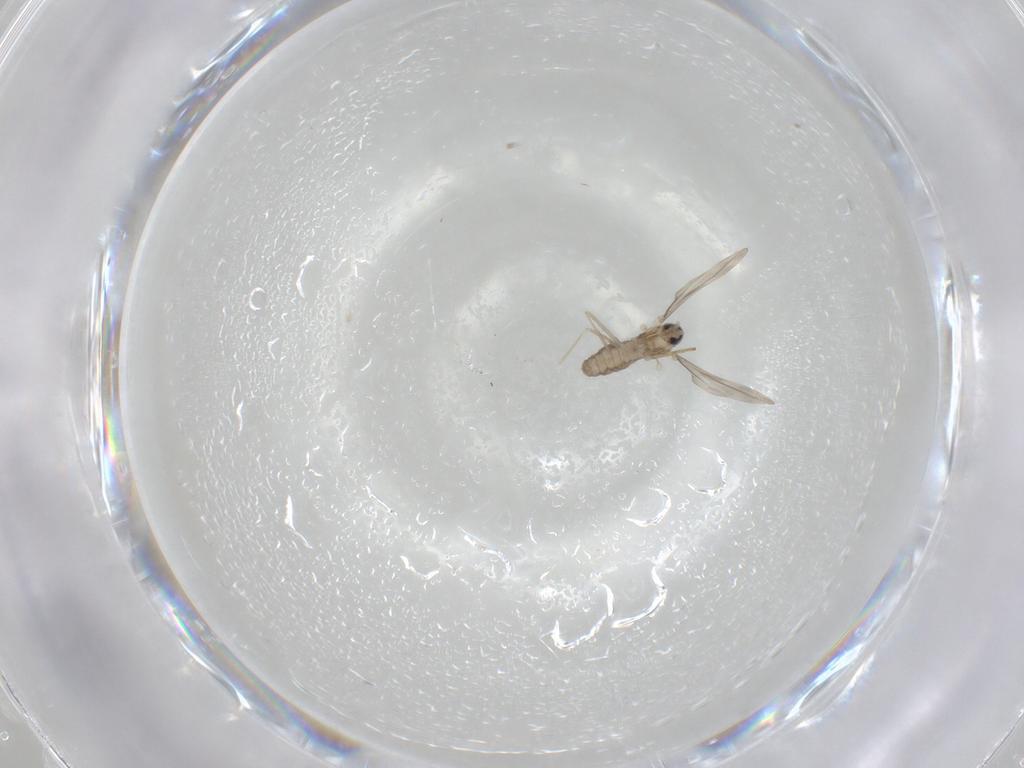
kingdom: Animalia
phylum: Arthropoda
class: Insecta
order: Diptera
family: Cecidomyiidae
